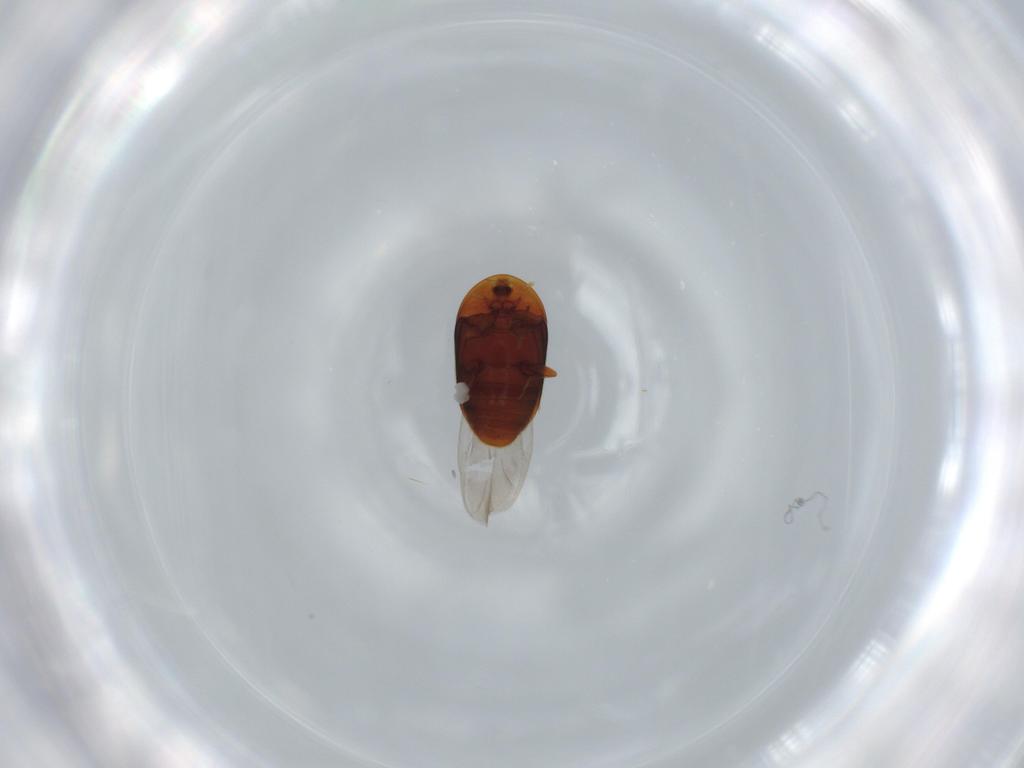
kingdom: Animalia
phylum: Arthropoda
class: Insecta
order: Coleoptera
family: Corylophidae
